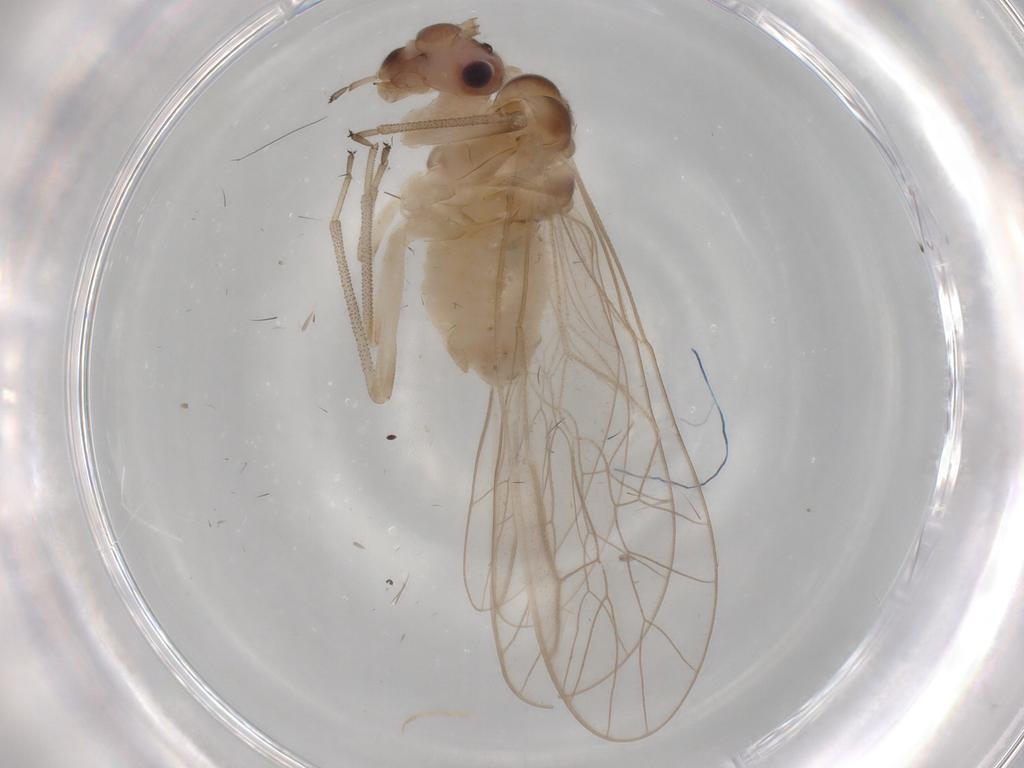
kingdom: Animalia
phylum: Arthropoda
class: Insecta
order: Psocodea
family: Stenopsocidae
